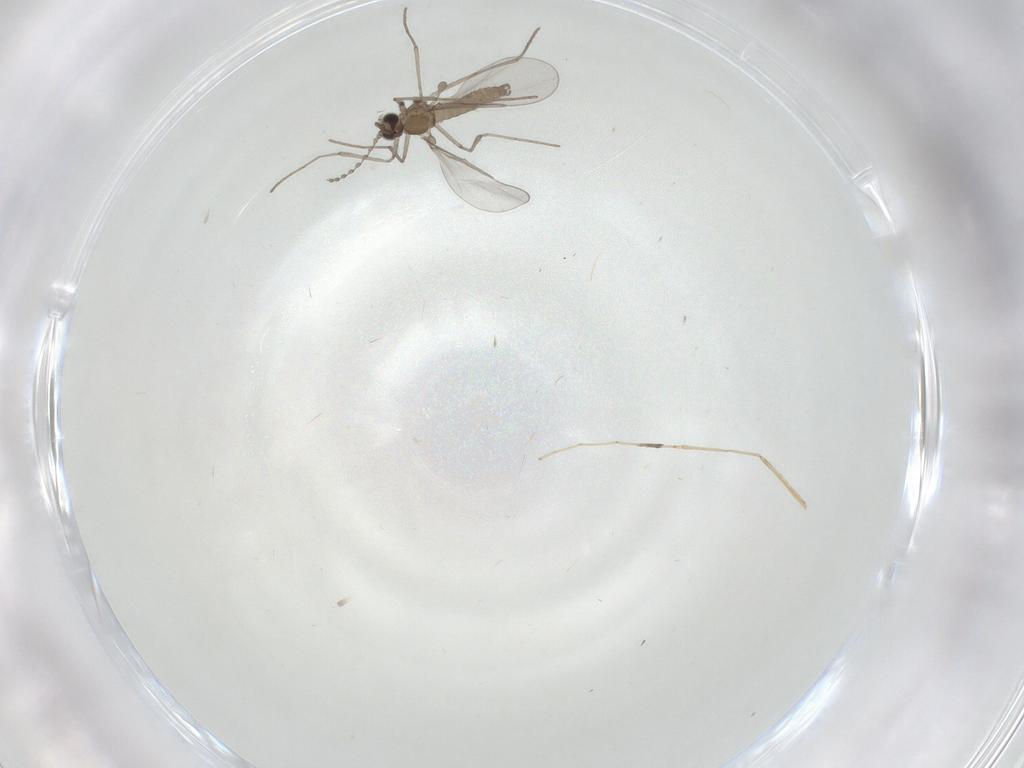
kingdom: Animalia
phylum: Arthropoda
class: Insecta
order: Diptera
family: Cecidomyiidae
